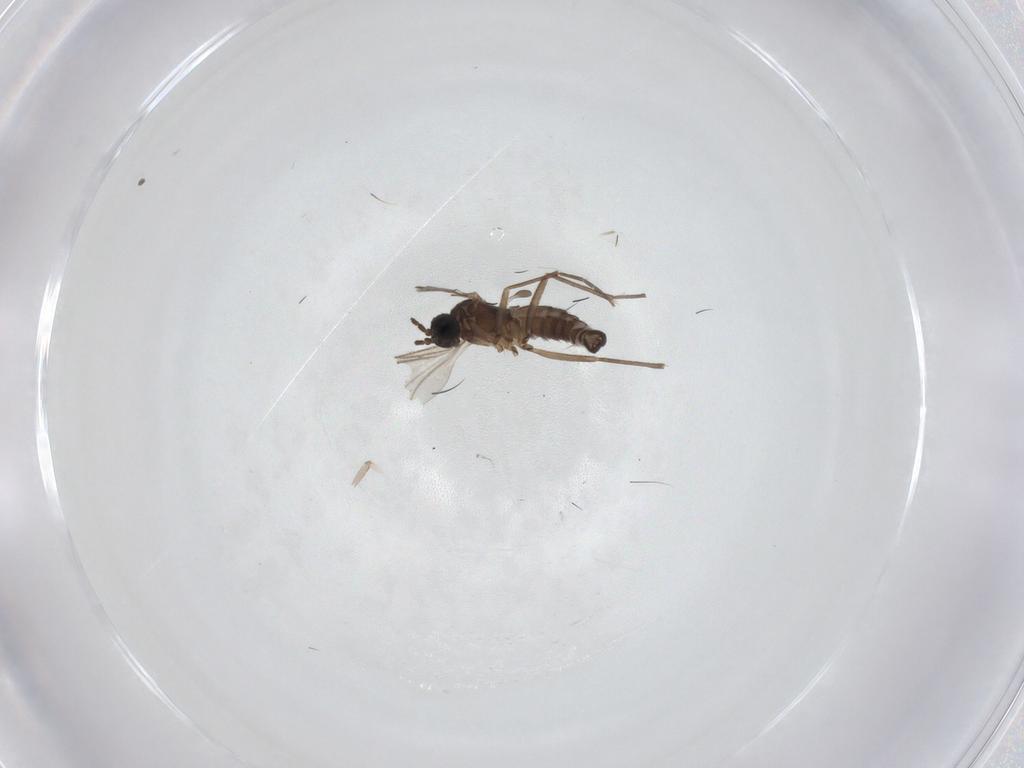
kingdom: Animalia
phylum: Arthropoda
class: Insecta
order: Diptera
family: Sciaridae
